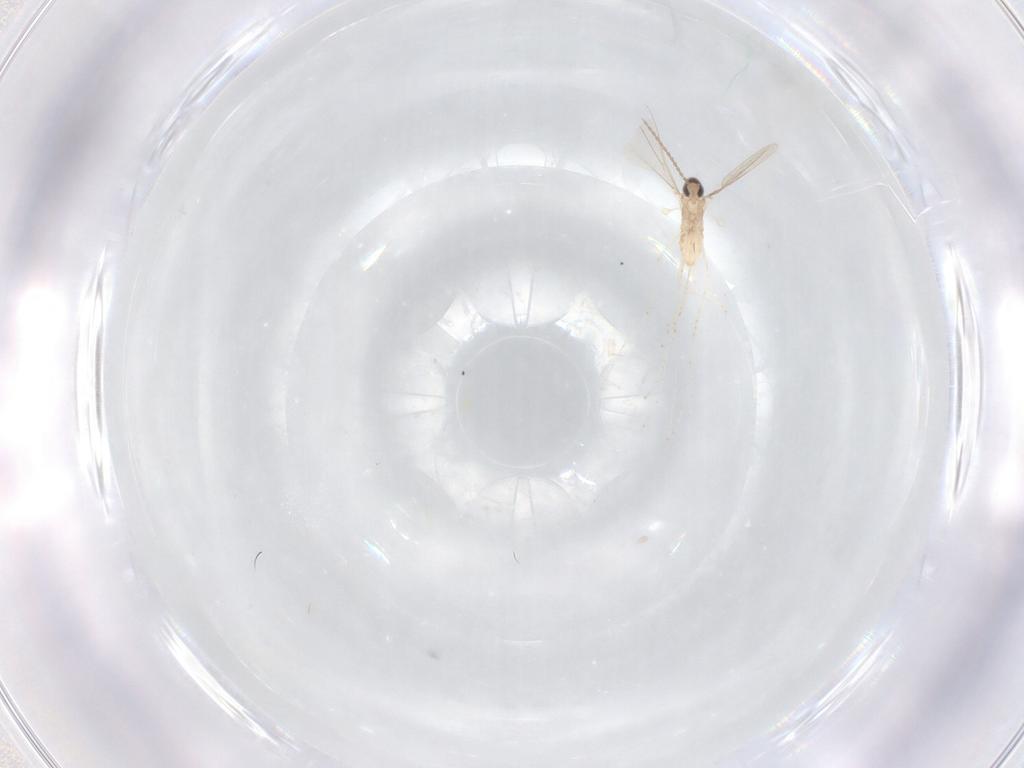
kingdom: Animalia
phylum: Arthropoda
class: Insecta
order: Diptera
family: Cecidomyiidae
